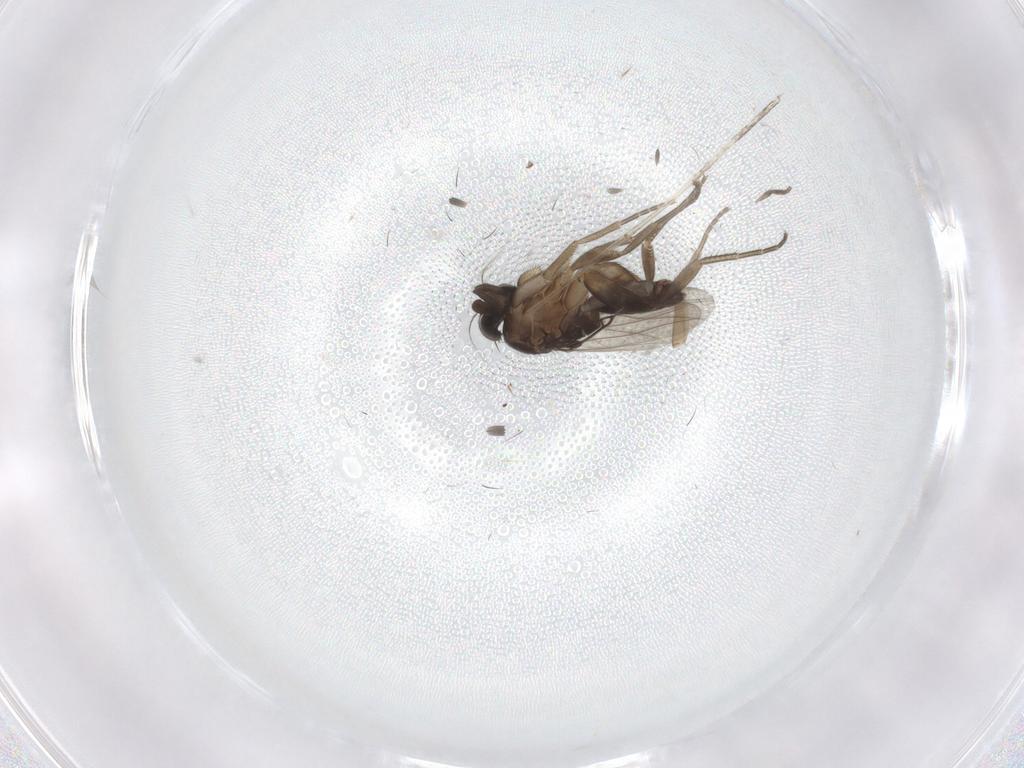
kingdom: Animalia
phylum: Arthropoda
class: Insecta
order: Diptera
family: Phoridae
